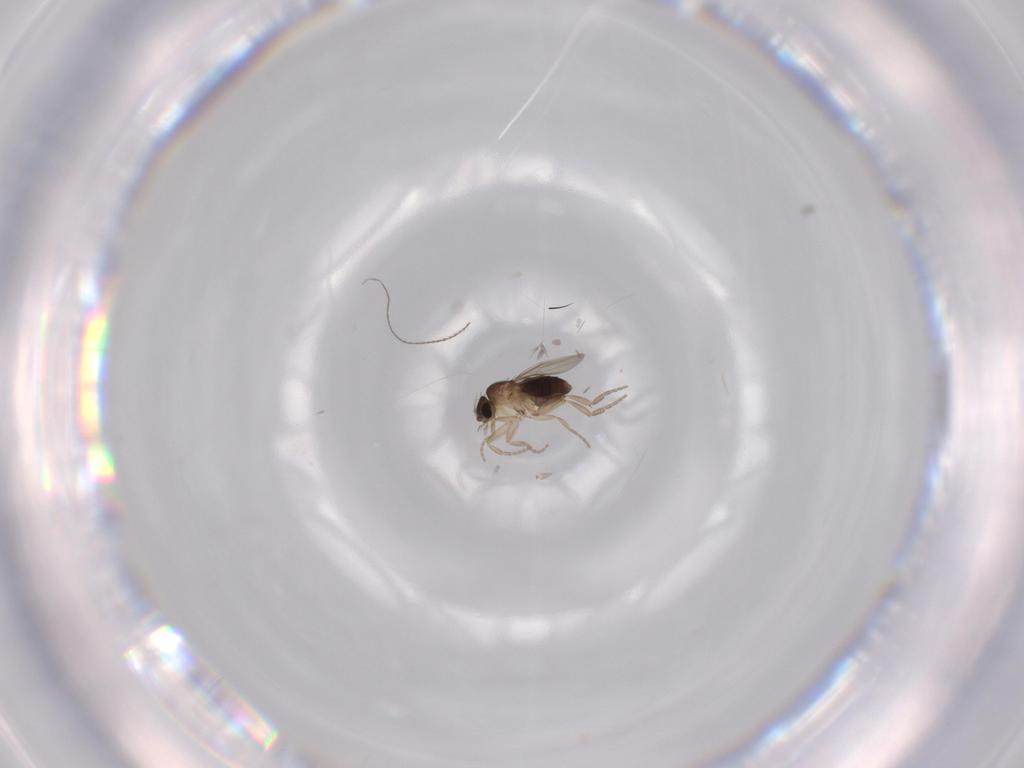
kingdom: Animalia
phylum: Arthropoda
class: Insecta
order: Diptera
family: Phoridae
